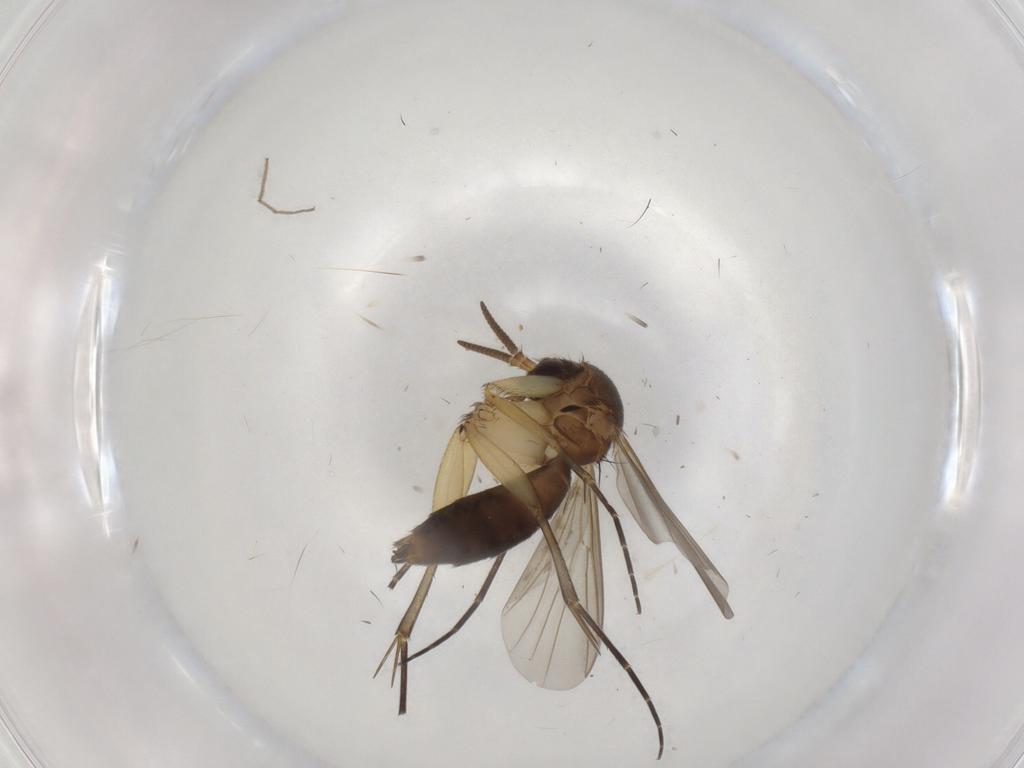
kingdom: Animalia
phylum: Arthropoda
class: Insecta
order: Diptera
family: Mycetophilidae
